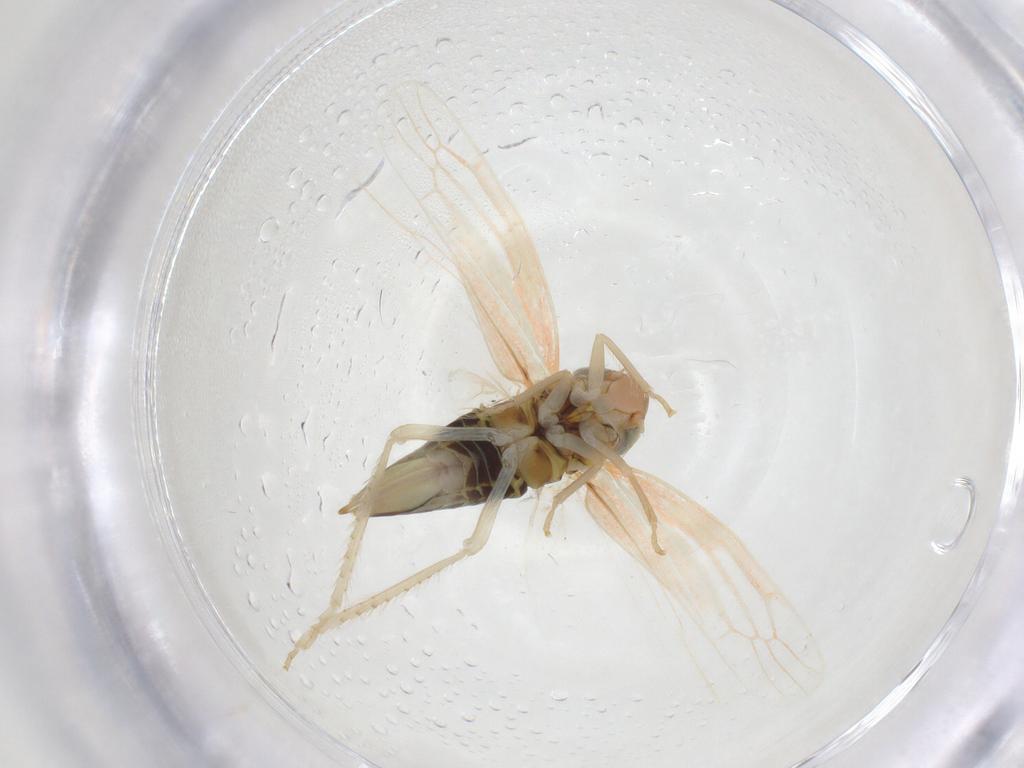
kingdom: Animalia
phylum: Arthropoda
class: Insecta
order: Hemiptera
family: Cicadellidae
